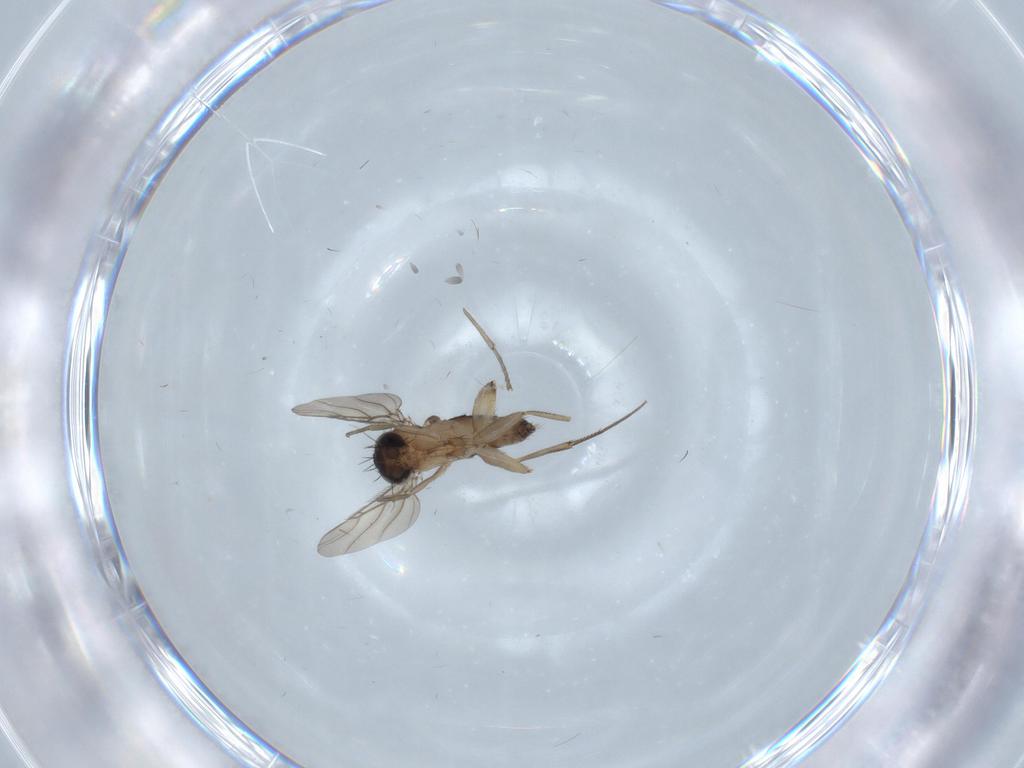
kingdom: Animalia
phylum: Arthropoda
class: Insecta
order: Diptera
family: Phoridae
